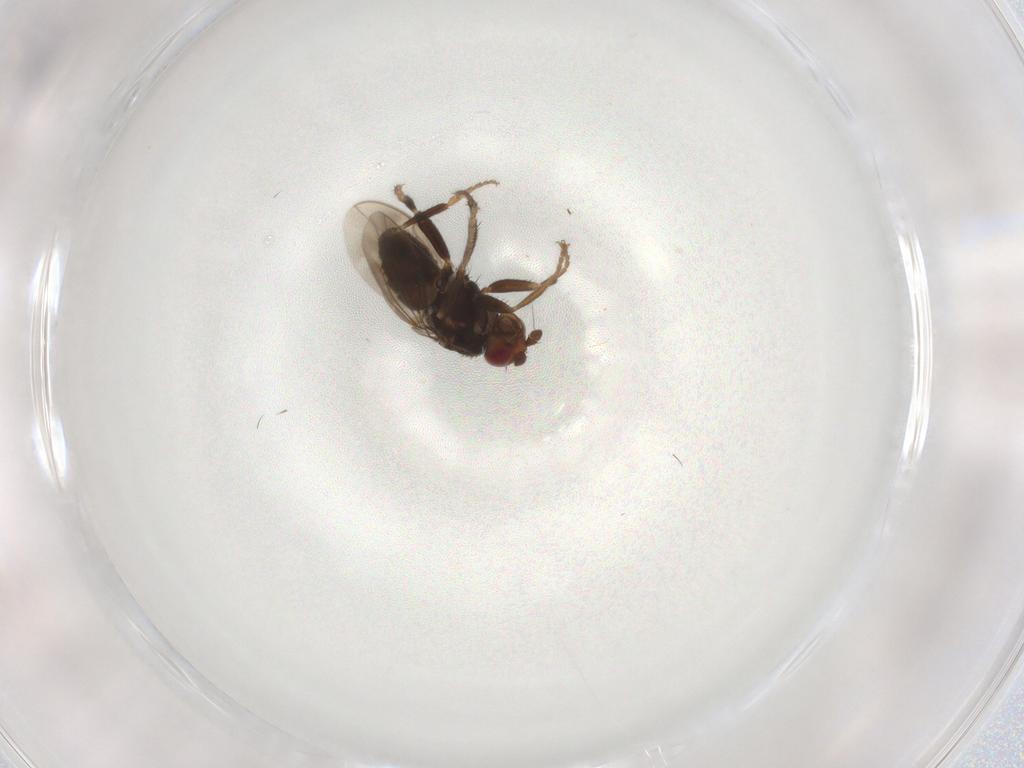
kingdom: Animalia
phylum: Arthropoda
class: Insecta
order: Diptera
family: Sphaeroceridae
